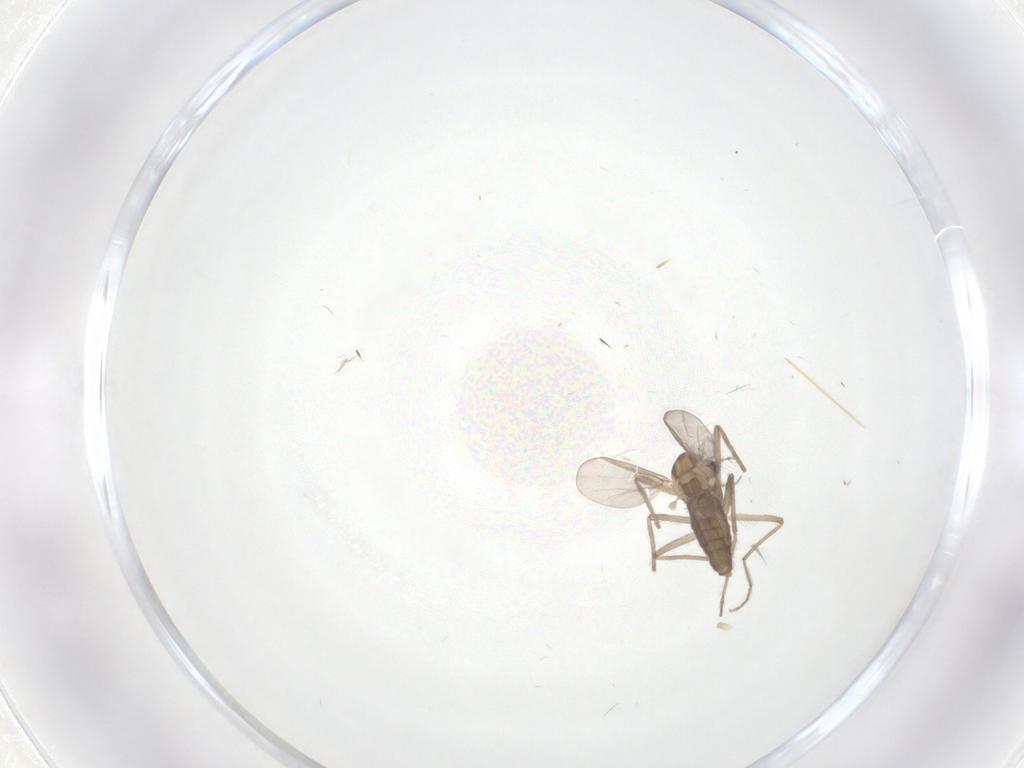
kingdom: Animalia
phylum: Arthropoda
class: Insecta
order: Diptera
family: Chironomidae
